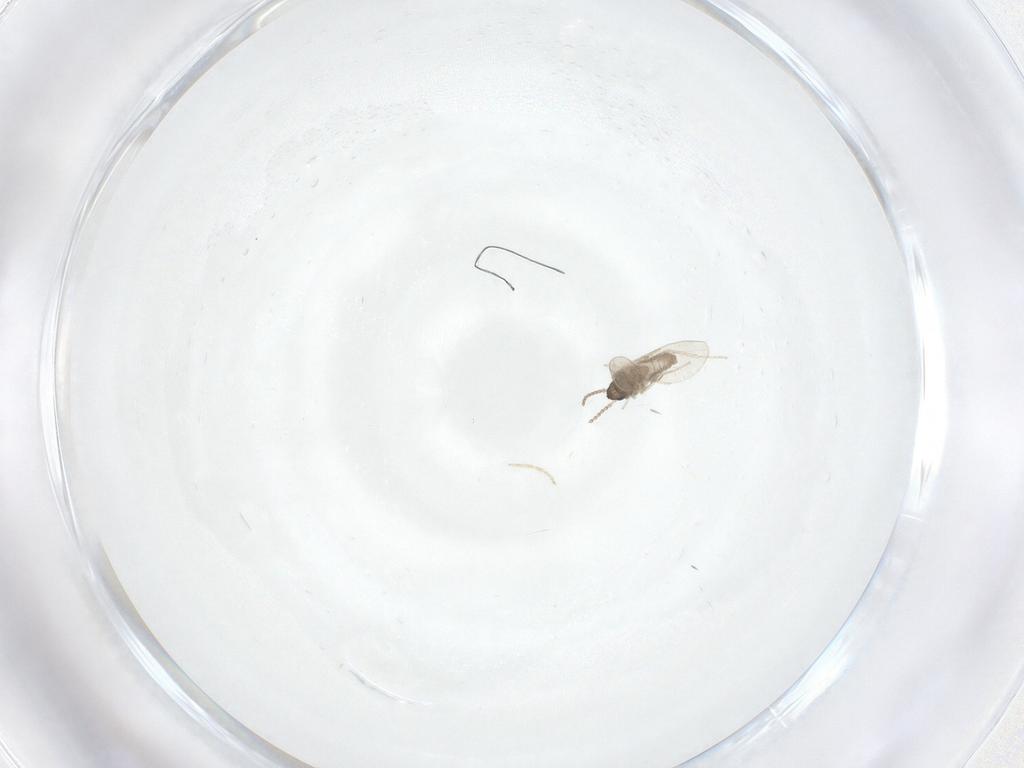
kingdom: Animalia
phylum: Arthropoda
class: Insecta
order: Diptera
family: Cecidomyiidae
